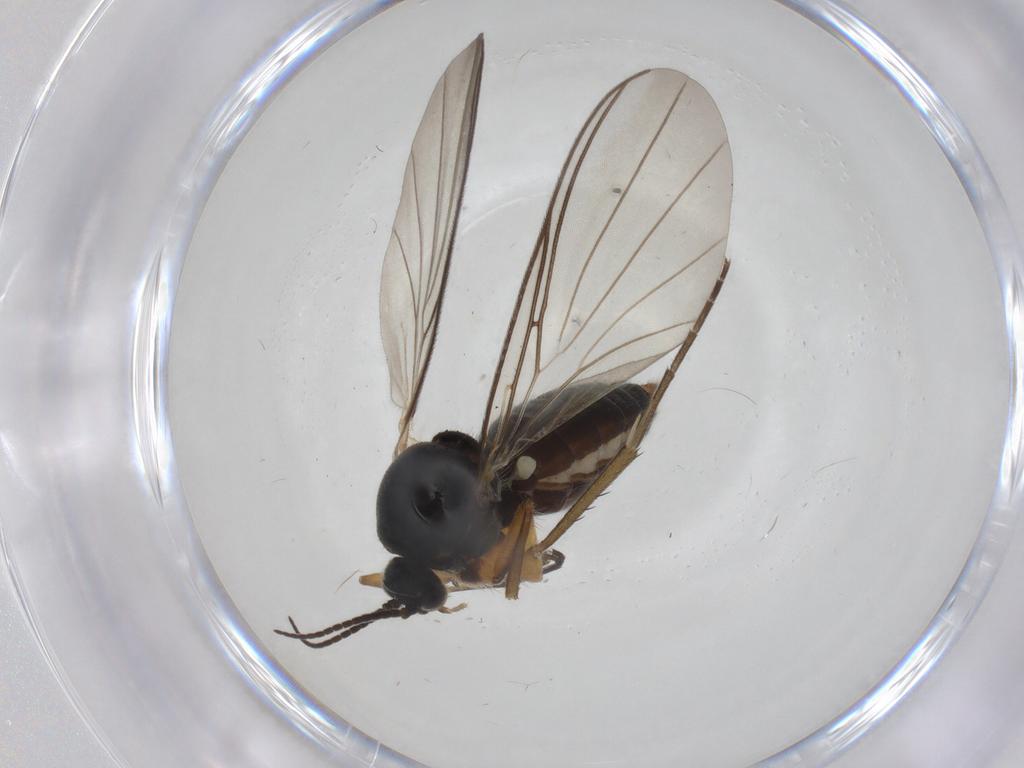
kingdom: Animalia
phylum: Arthropoda
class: Insecta
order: Diptera
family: Mycetophilidae
